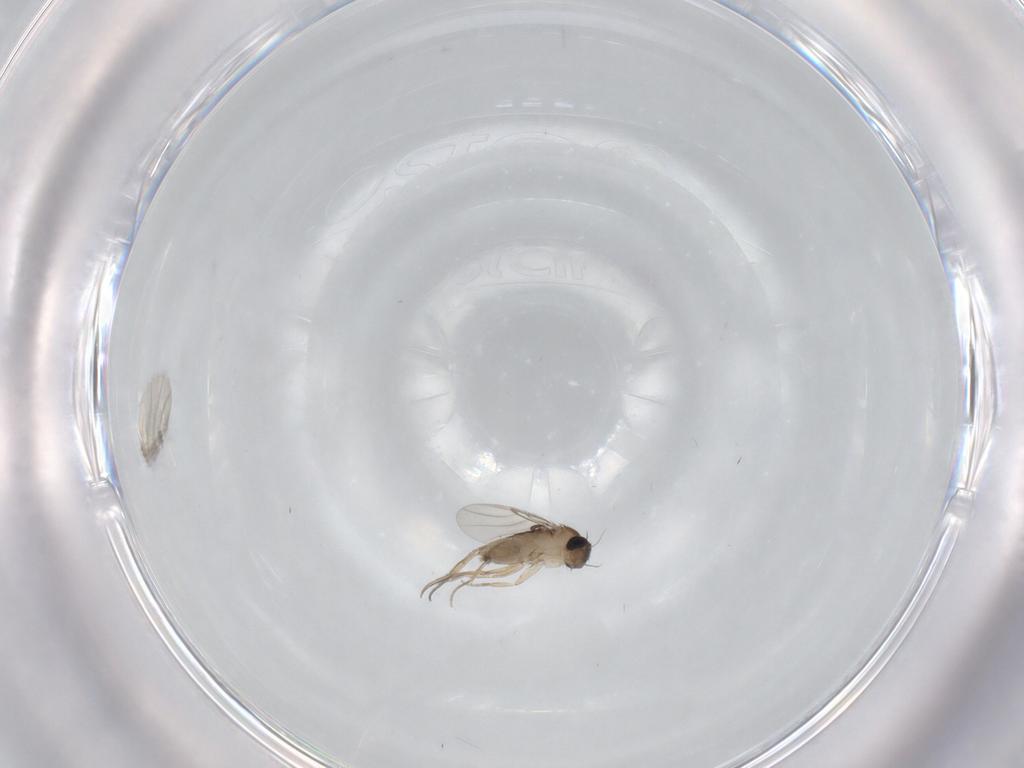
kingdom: Animalia
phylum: Arthropoda
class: Insecta
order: Diptera
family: Phoridae
